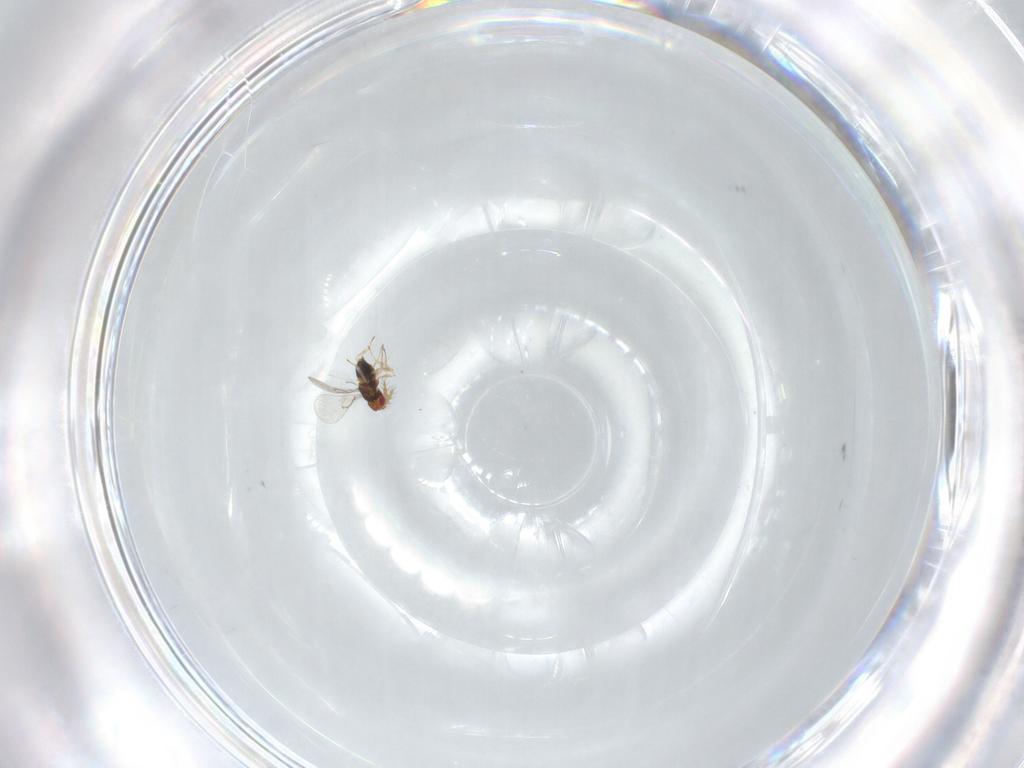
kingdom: Animalia
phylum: Arthropoda
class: Insecta
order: Hymenoptera
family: Trichogrammatidae
